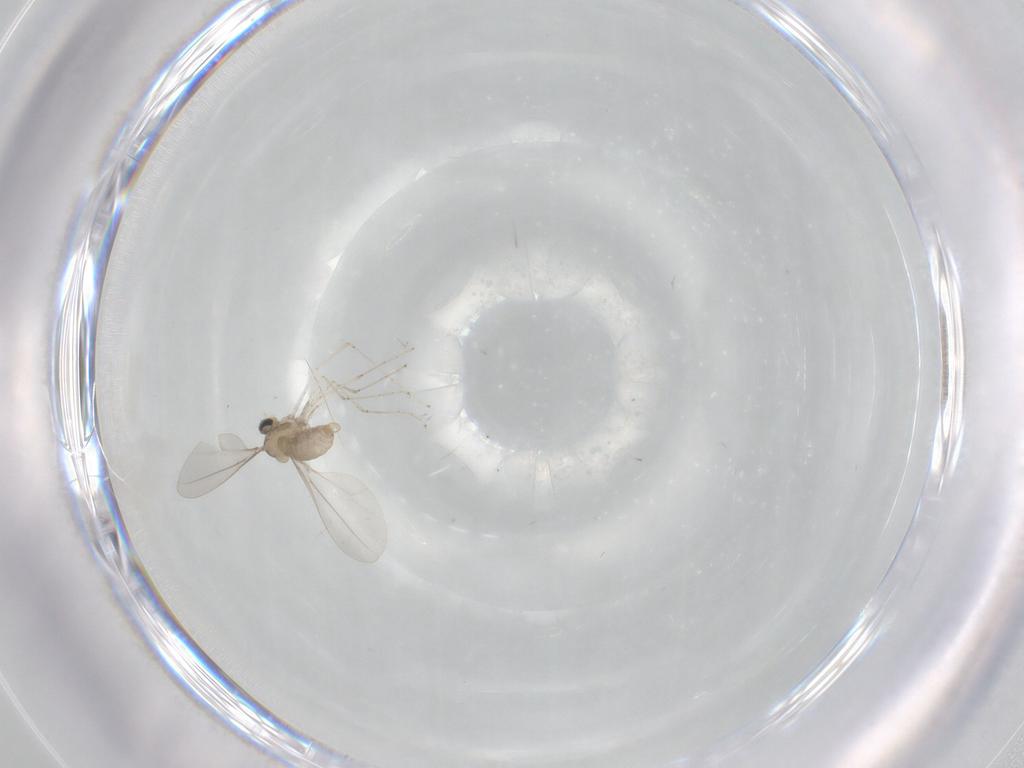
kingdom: Animalia
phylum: Arthropoda
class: Insecta
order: Diptera
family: Cecidomyiidae
